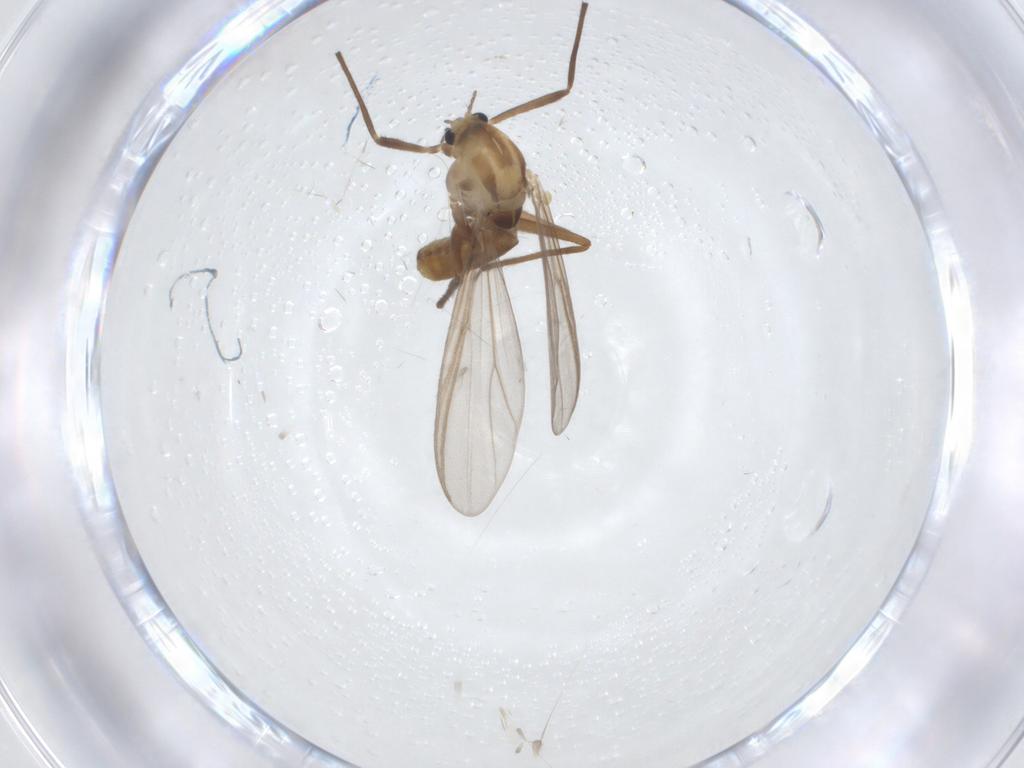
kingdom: Animalia
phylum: Arthropoda
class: Insecta
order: Diptera
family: Chironomidae
